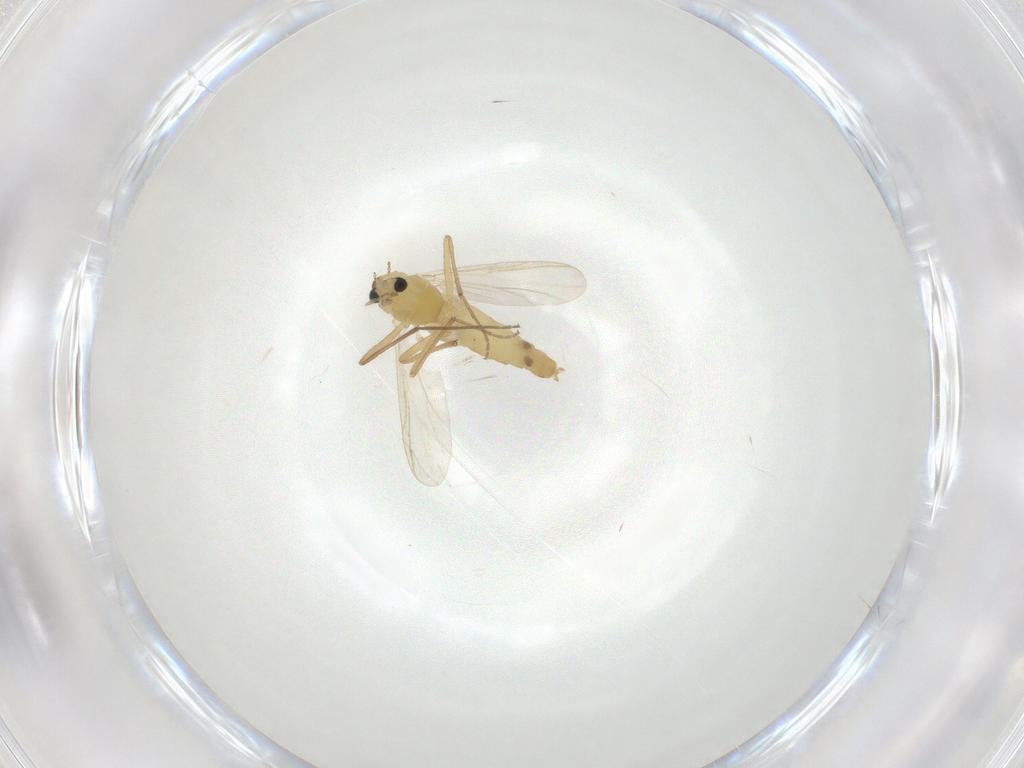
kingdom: Animalia
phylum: Arthropoda
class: Insecta
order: Diptera
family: Chironomidae
